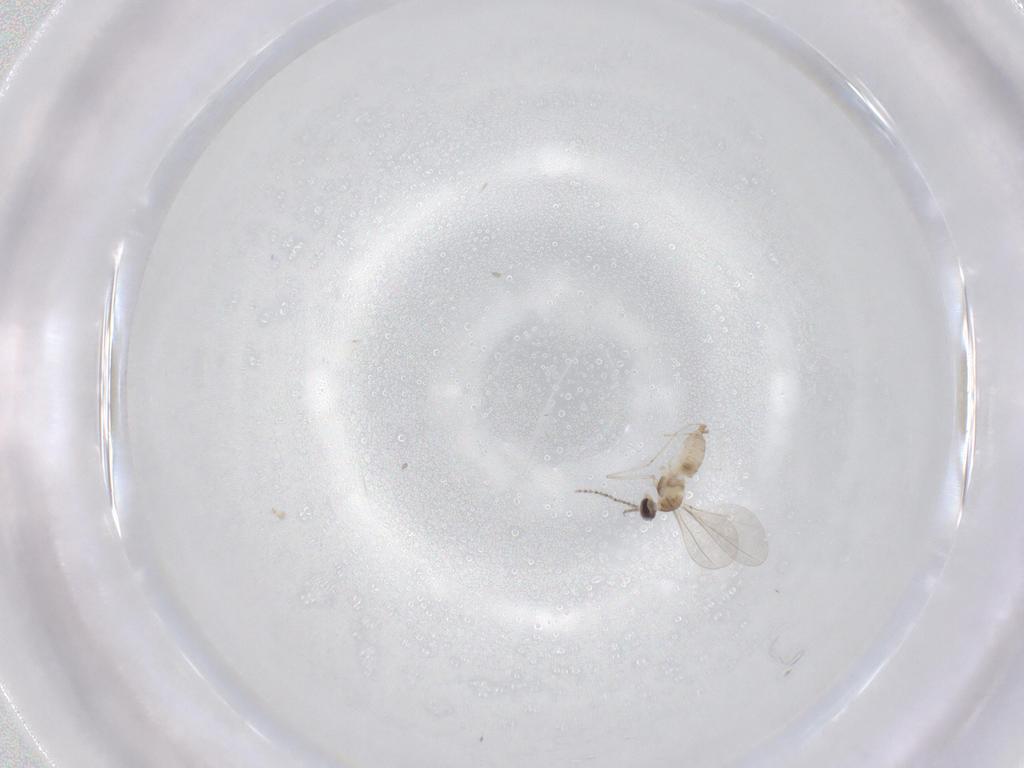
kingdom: Animalia
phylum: Arthropoda
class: Insecta
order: Diptera
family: Cecidomyiidae
